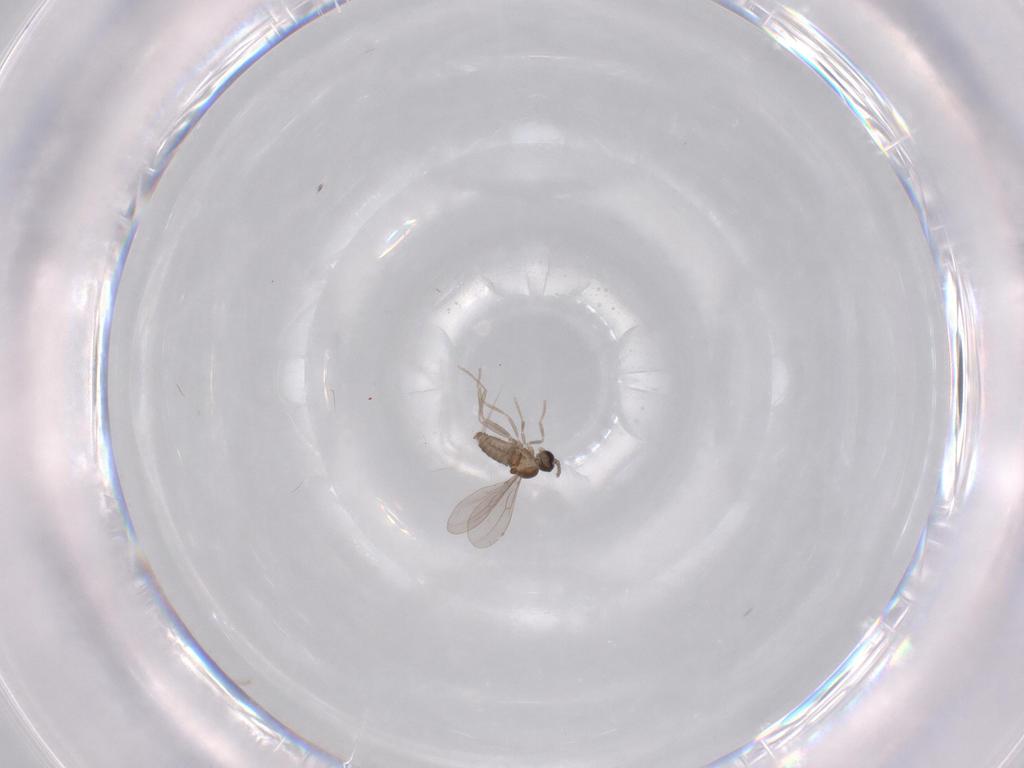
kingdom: Animalia
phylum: Arthropoda
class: Insecta
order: Diptera
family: Cecidomyiidae
